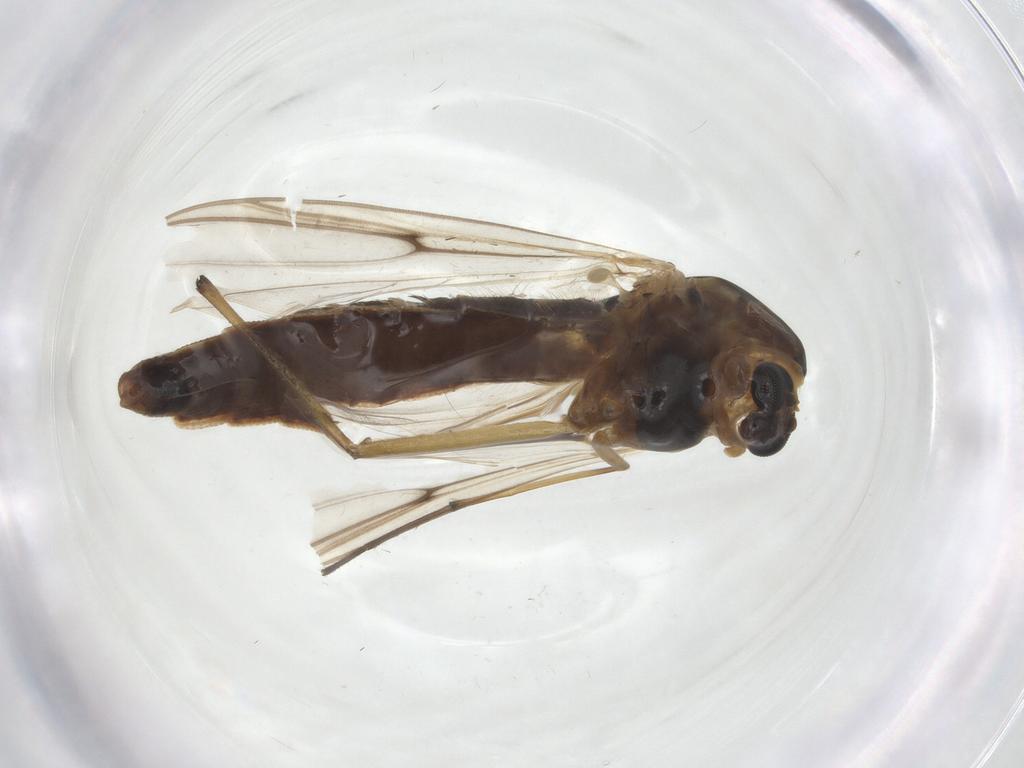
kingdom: Animalia
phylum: Arthropoda
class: Insecta
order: Diptera
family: Chironomidae
